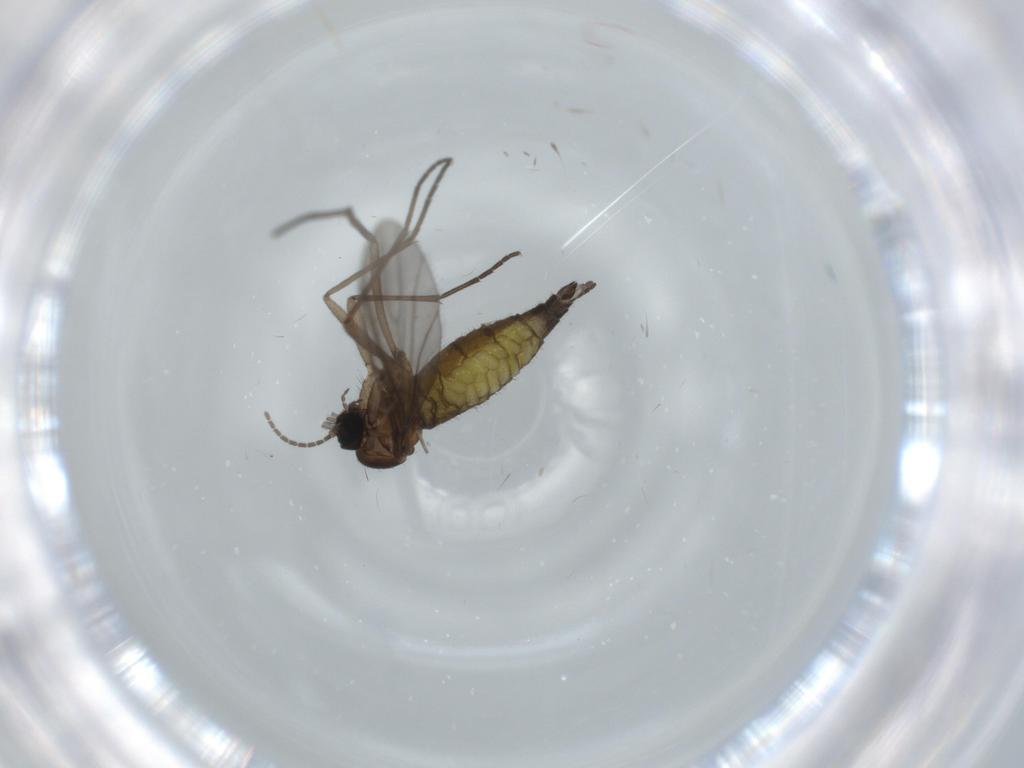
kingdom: Animalia
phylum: Arthropoda
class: Insecta
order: Diptera
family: Sciaridae
